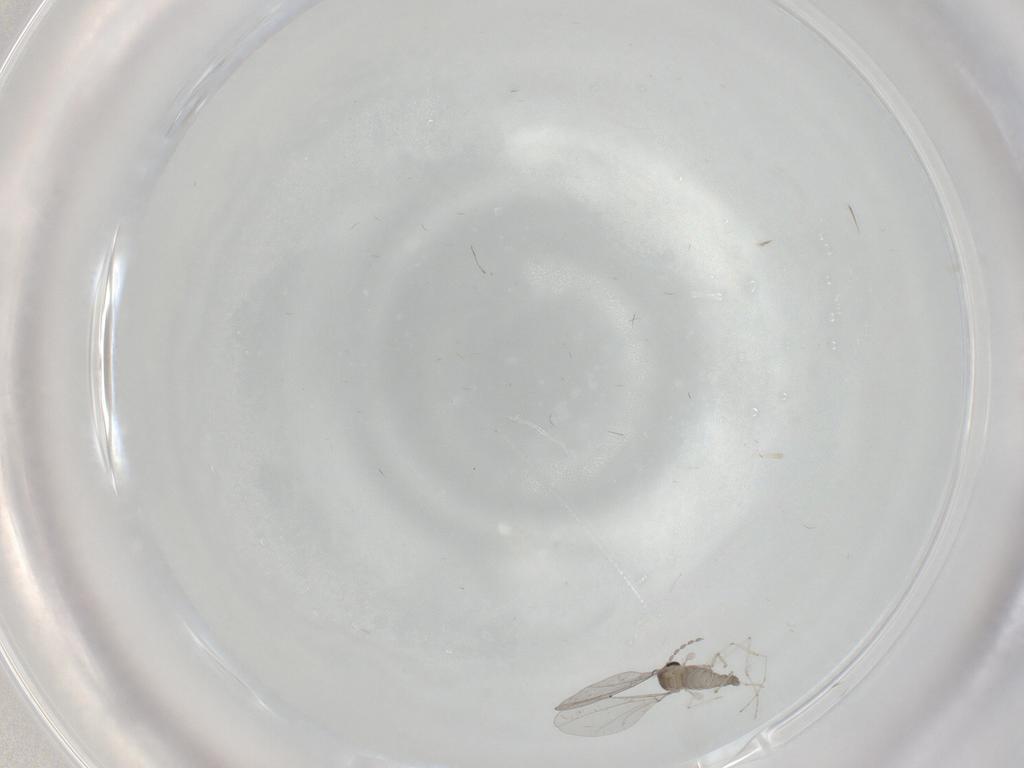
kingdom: Animalia
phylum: Arthropoda
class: Insecta
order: Diptera
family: Cecidomyiidae
